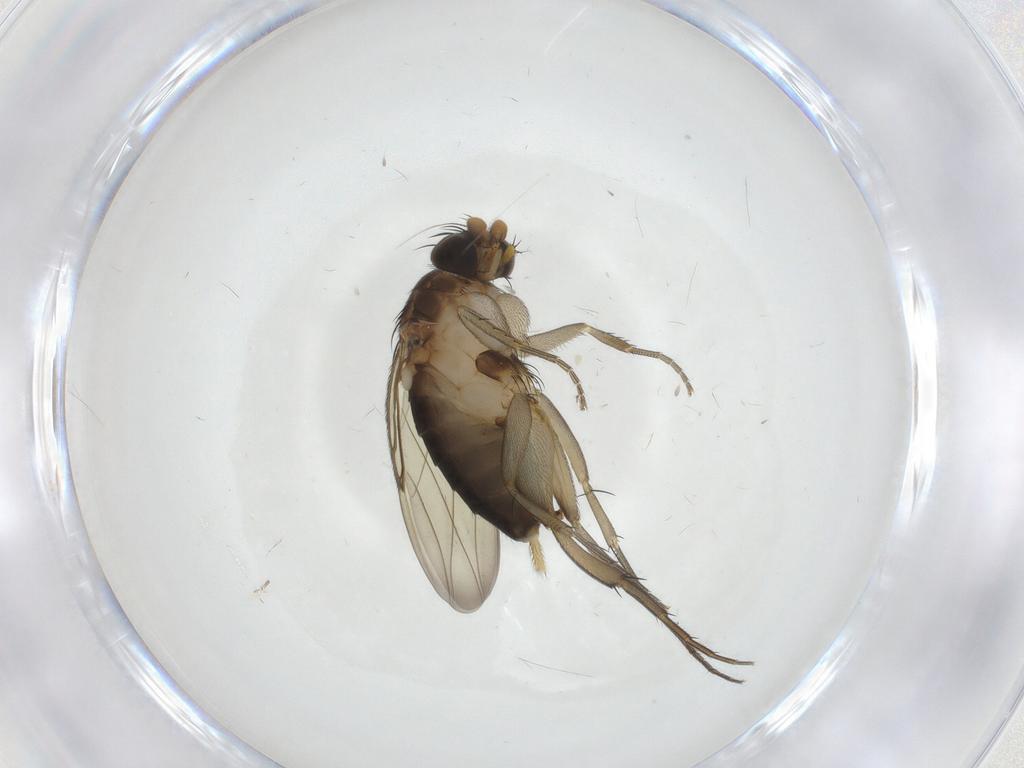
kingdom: Animalia
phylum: Arthropoda
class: Insecta
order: Diptera
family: Phoridae
